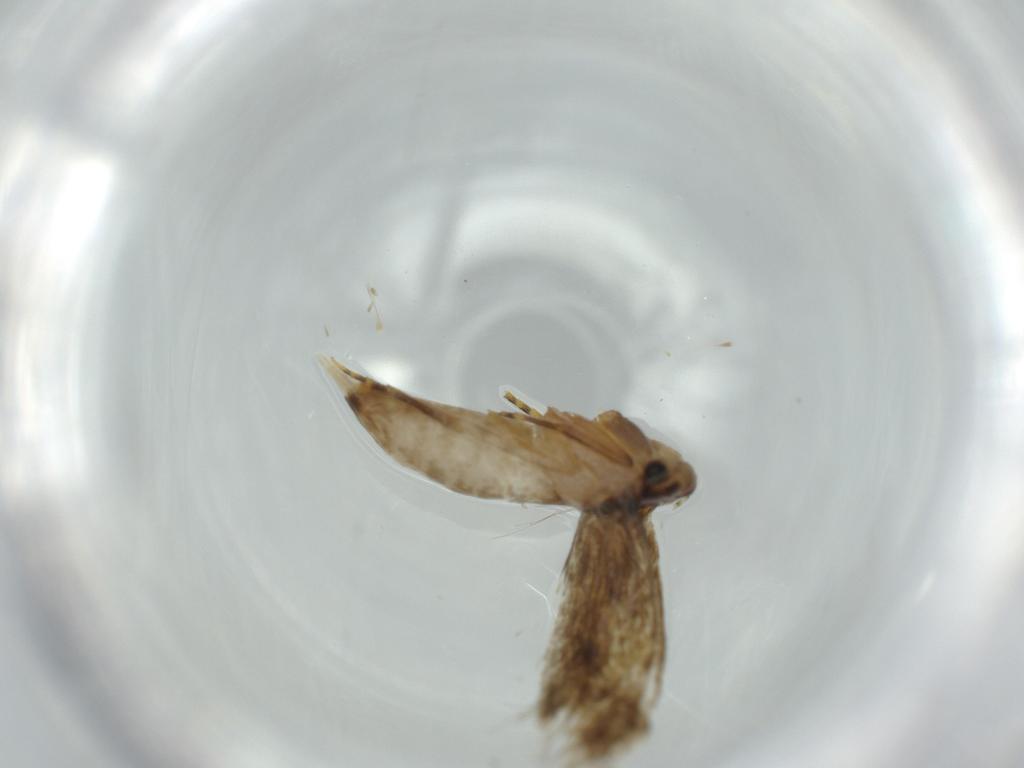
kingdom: Animalia
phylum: Arthropoda
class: Insecta
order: Lepidoptera
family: Tineidae
